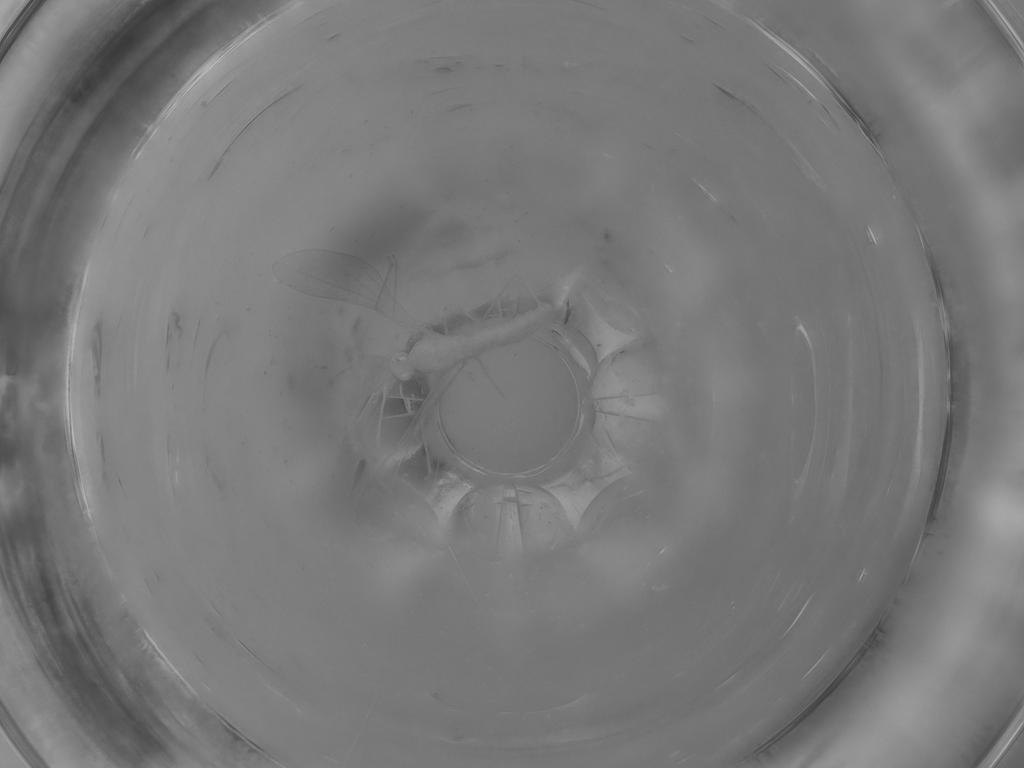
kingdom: Animalia
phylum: Arthropoda
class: Insecta
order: Diptera
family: Cecidomyiidae
